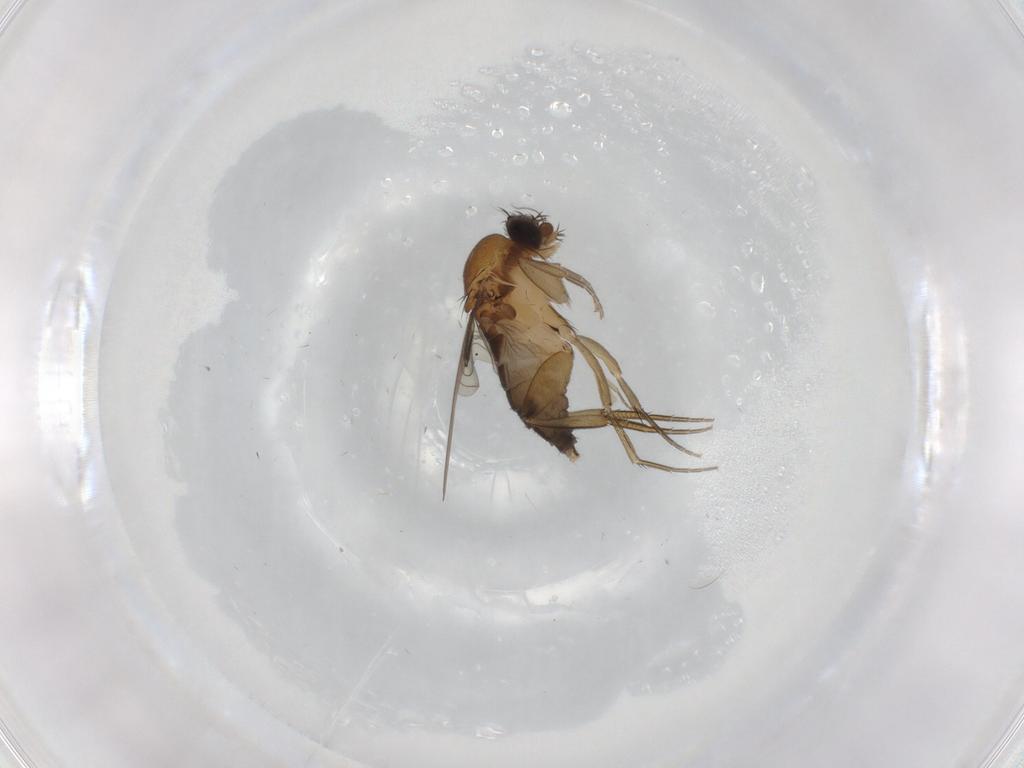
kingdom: Animalia
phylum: Arthropoda
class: Insecta
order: Diptera
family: Phoridae
